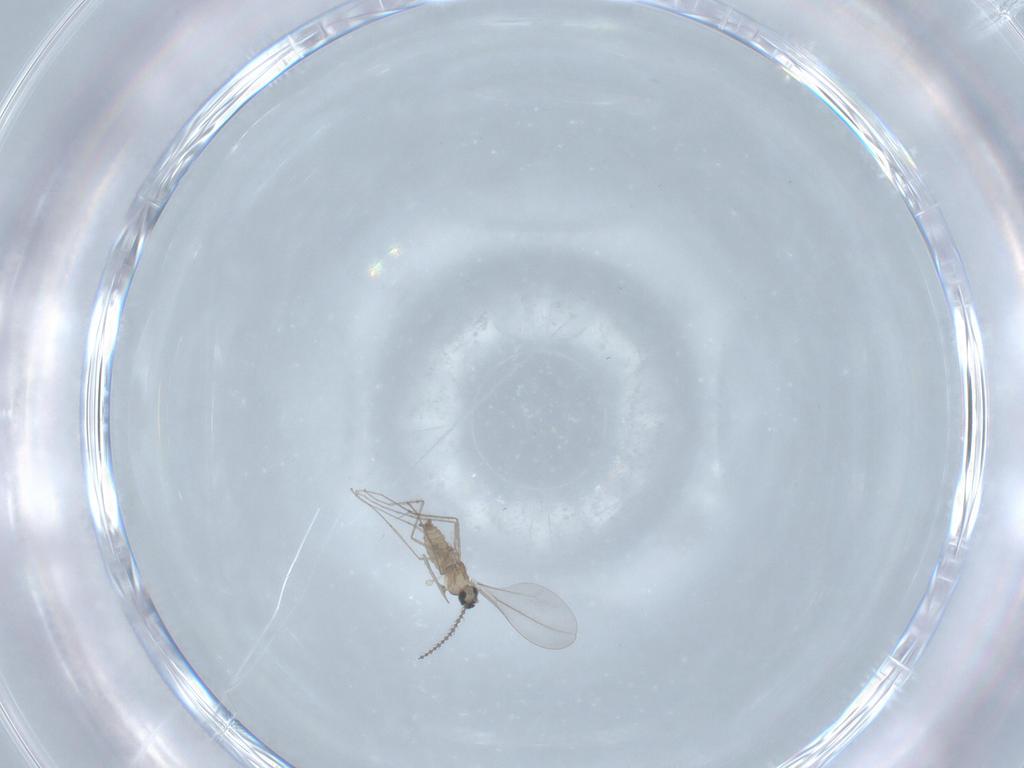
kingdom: Animalia
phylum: Arthropoda
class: Insecta
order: Diptera
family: Cecidomyiidae
